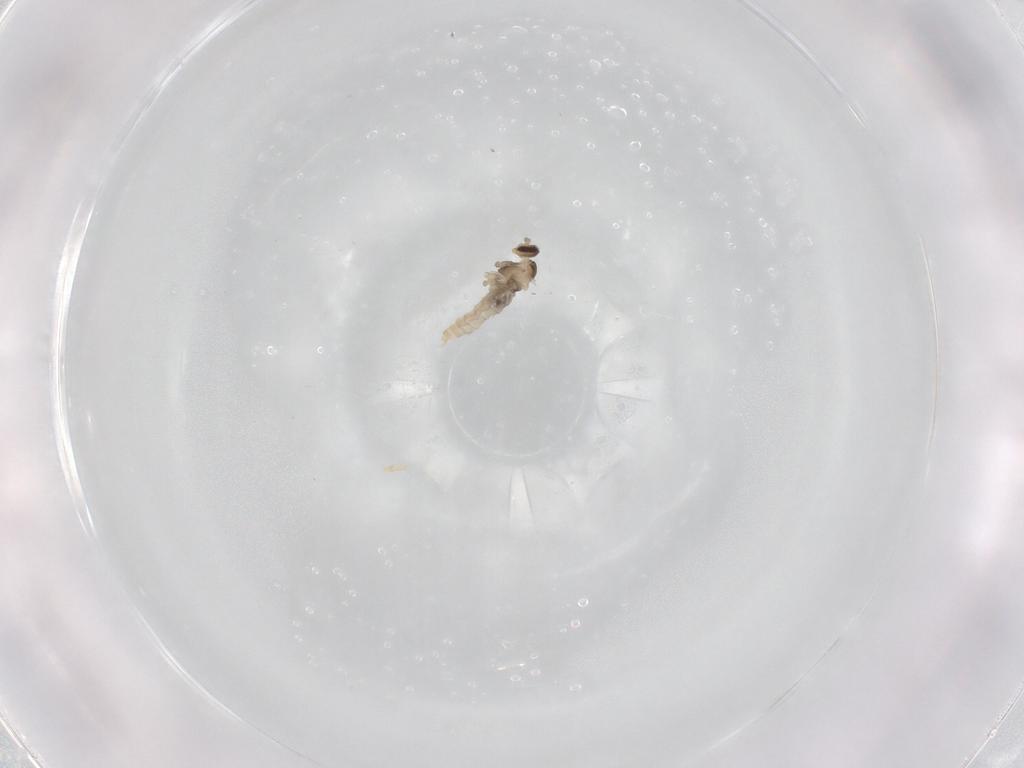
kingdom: Animalia
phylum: Arthropoda
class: Insecta
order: Diptera
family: Cecidomyiidae
